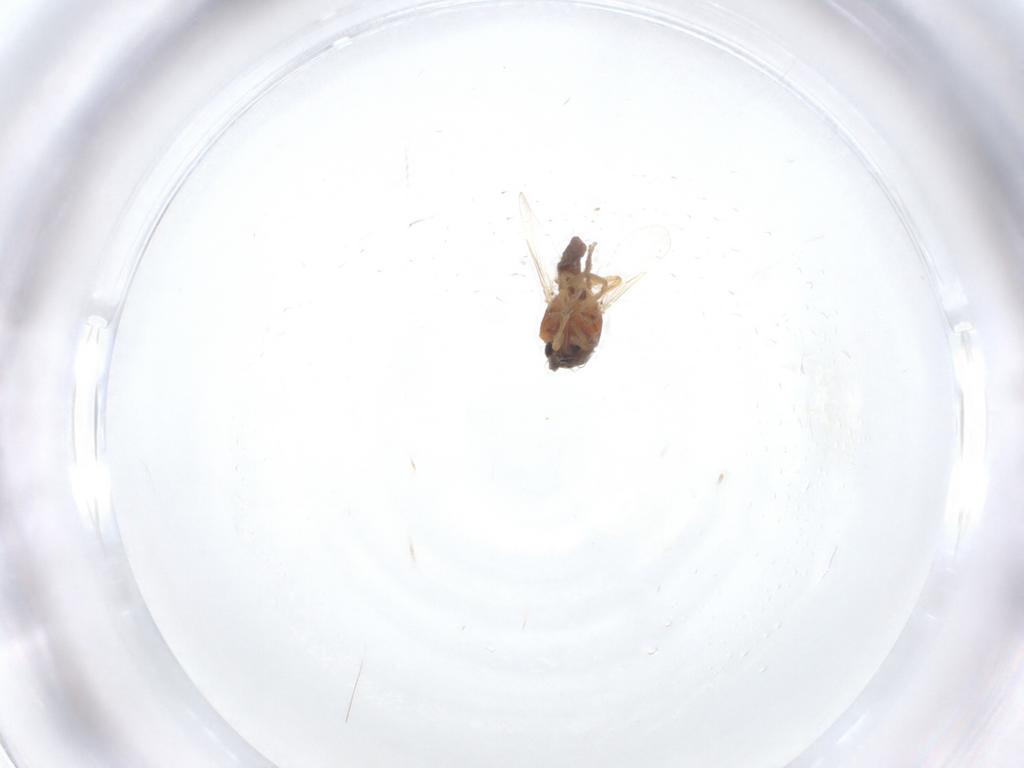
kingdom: Animalia
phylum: Arthropoda
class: Insecta
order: Diptera
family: Ceratopogonidae
